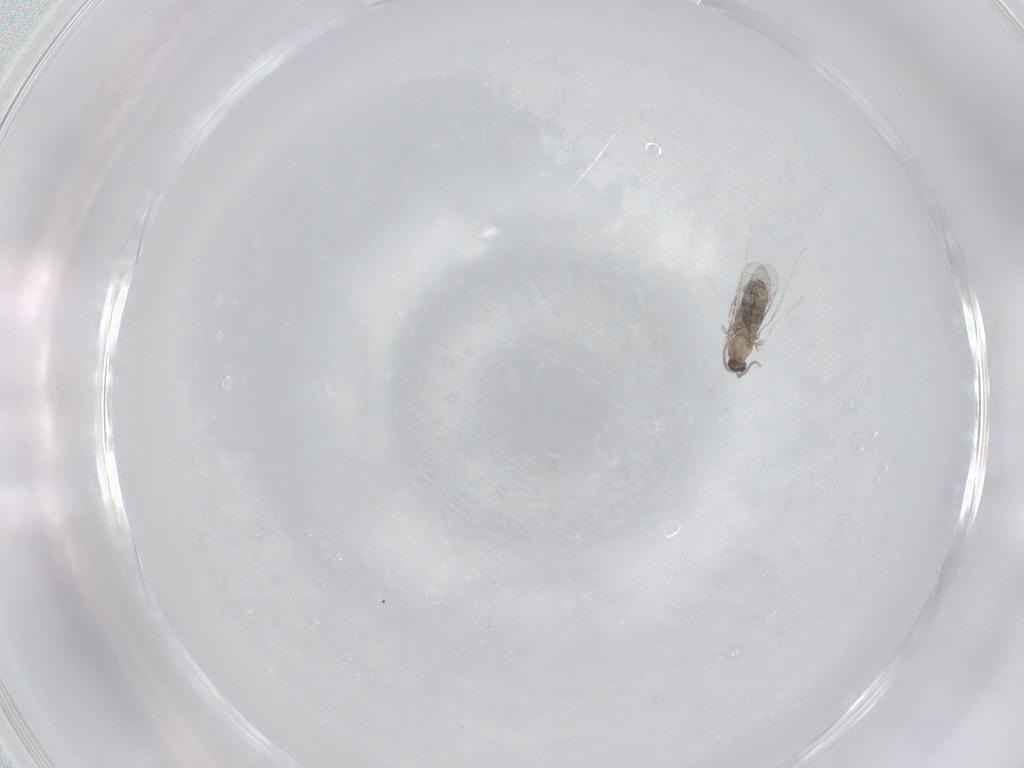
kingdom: Animalia
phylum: Arthropoda
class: Insecta
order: Diptera
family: Cecidomyiidae
